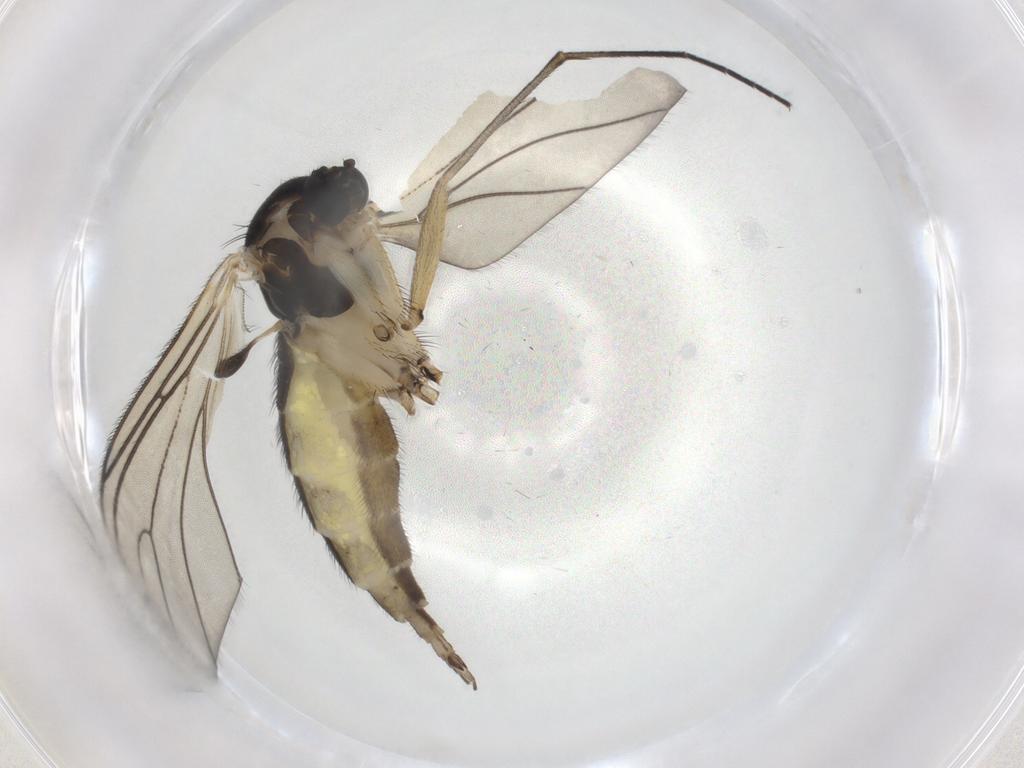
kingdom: Animalia
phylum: Arthropoda
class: Insecta
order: Diptera
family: Sciaridae
